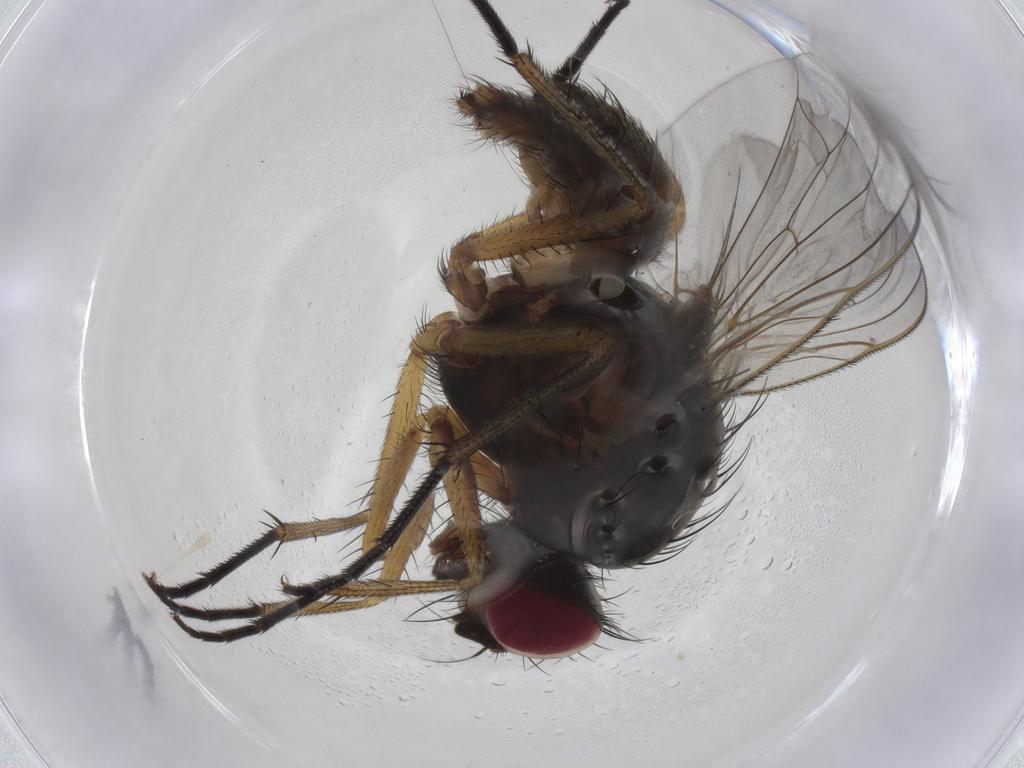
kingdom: Animalia
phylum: Arthropoda
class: Insecta
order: Diptera
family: Anthomyiidae
